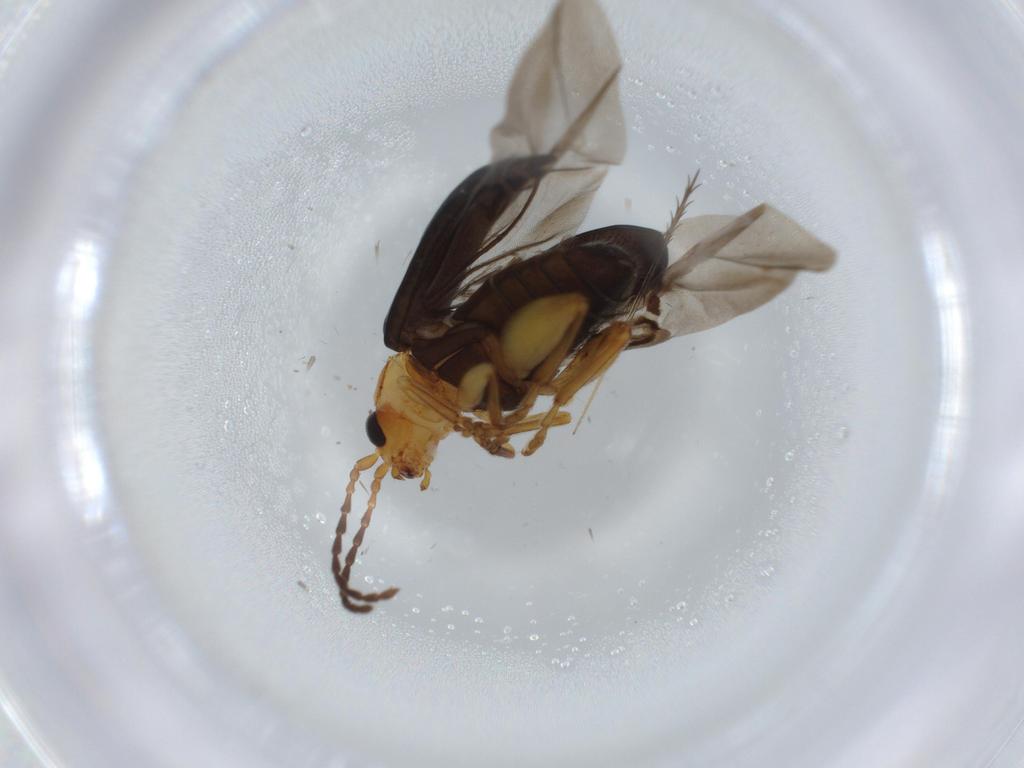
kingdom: Animalia
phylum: Arthropoda
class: Insecta
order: Coleoptera
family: Chrysomelidae
